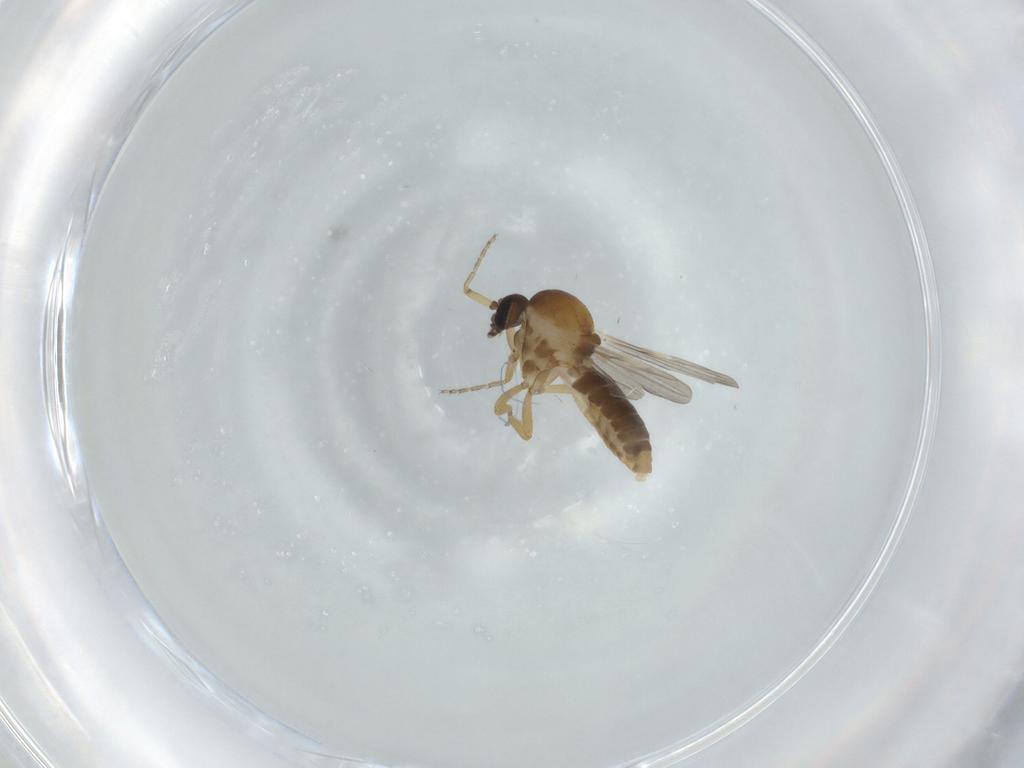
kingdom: Animalia
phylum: Arthropoda
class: Insecta
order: Diptera
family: Ceratopogonidae
